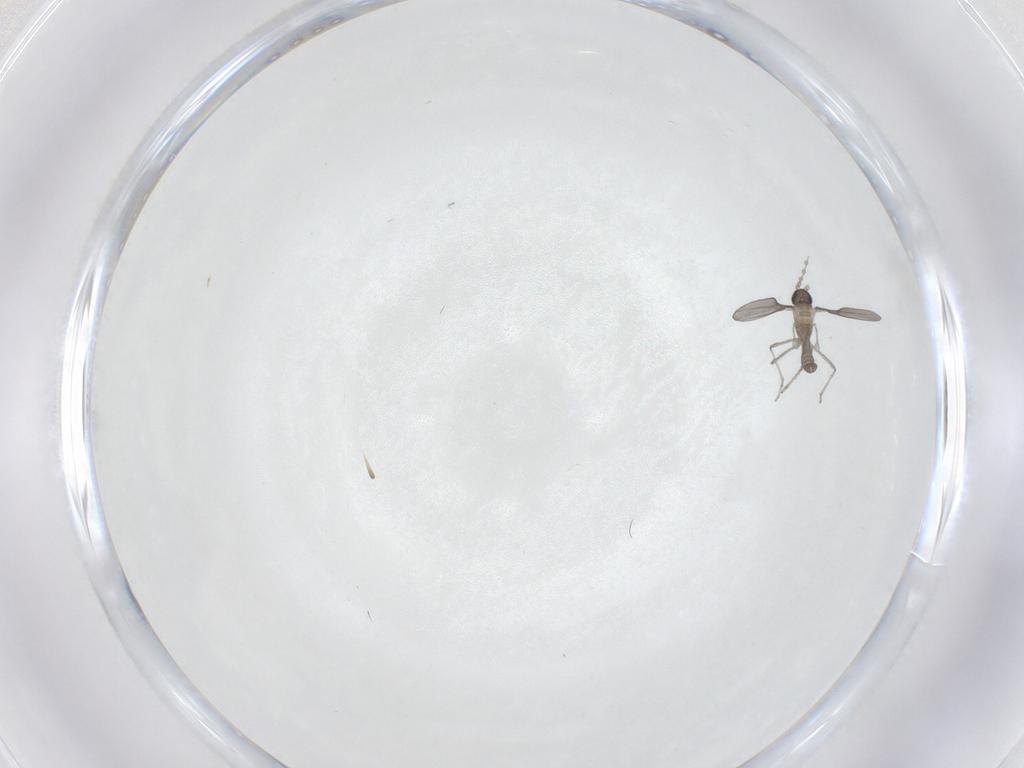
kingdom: Animalia
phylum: Arthropoda
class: Insecta
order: Diptera
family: Cecidomyiidae
